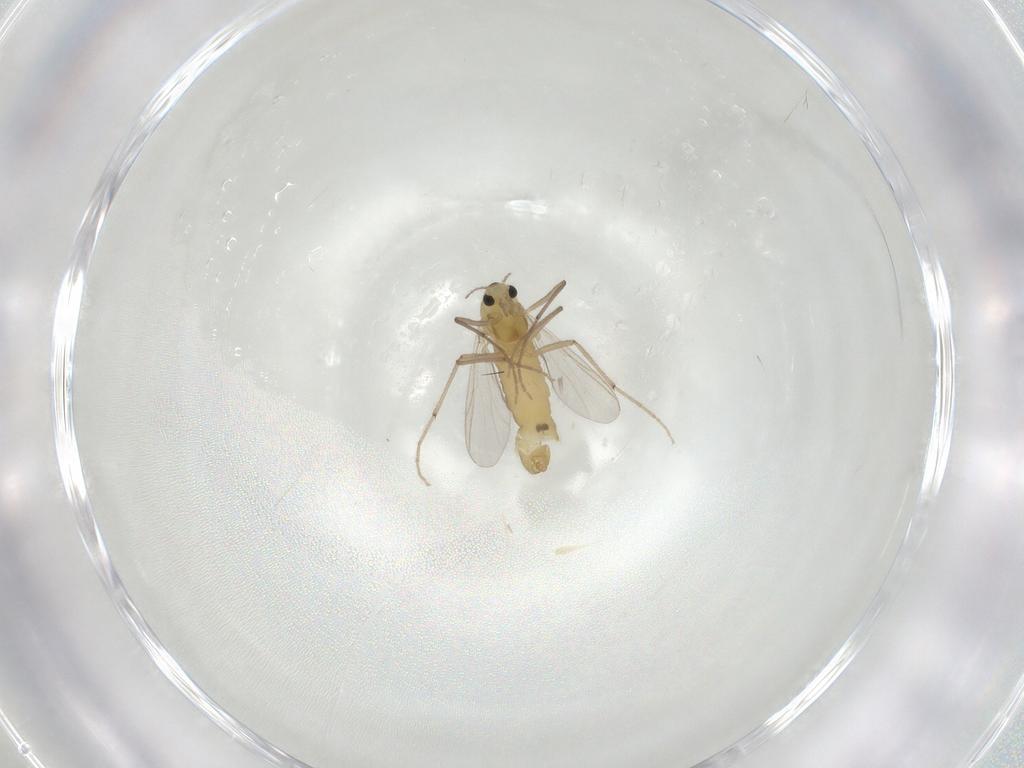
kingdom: Animalia
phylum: Arthropoda
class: Insecta
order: Diptera
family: Chironomidae
